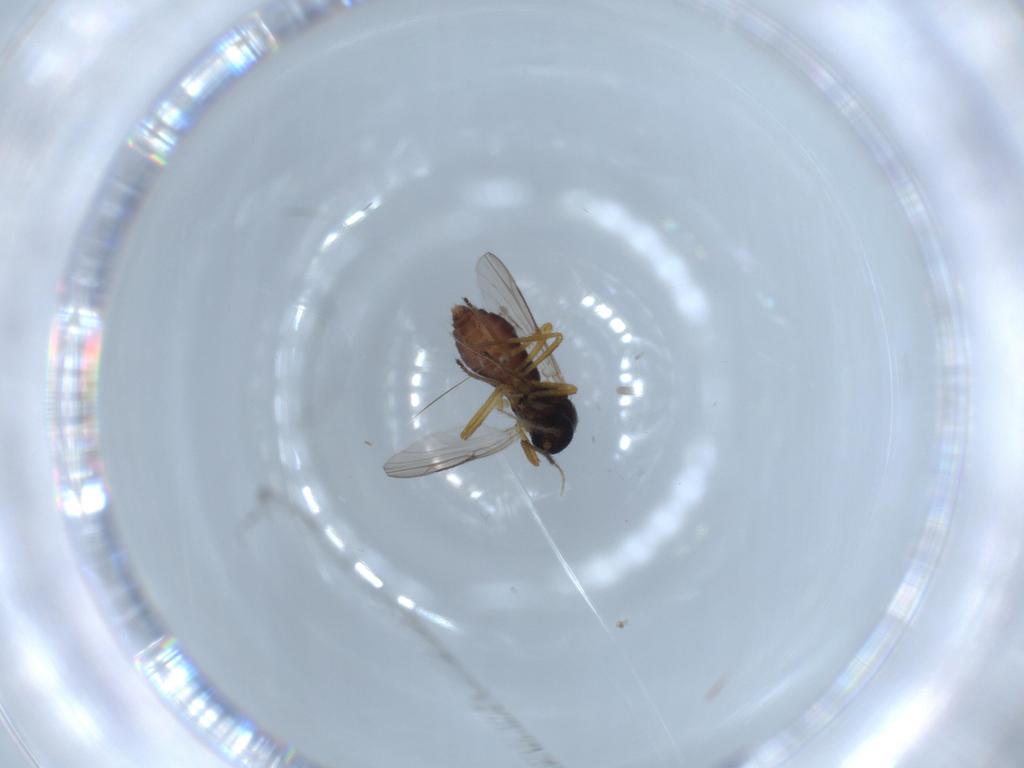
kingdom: Animalia
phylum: Arthropoda
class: Insecta
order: Diptera
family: Ceratopogonidae
